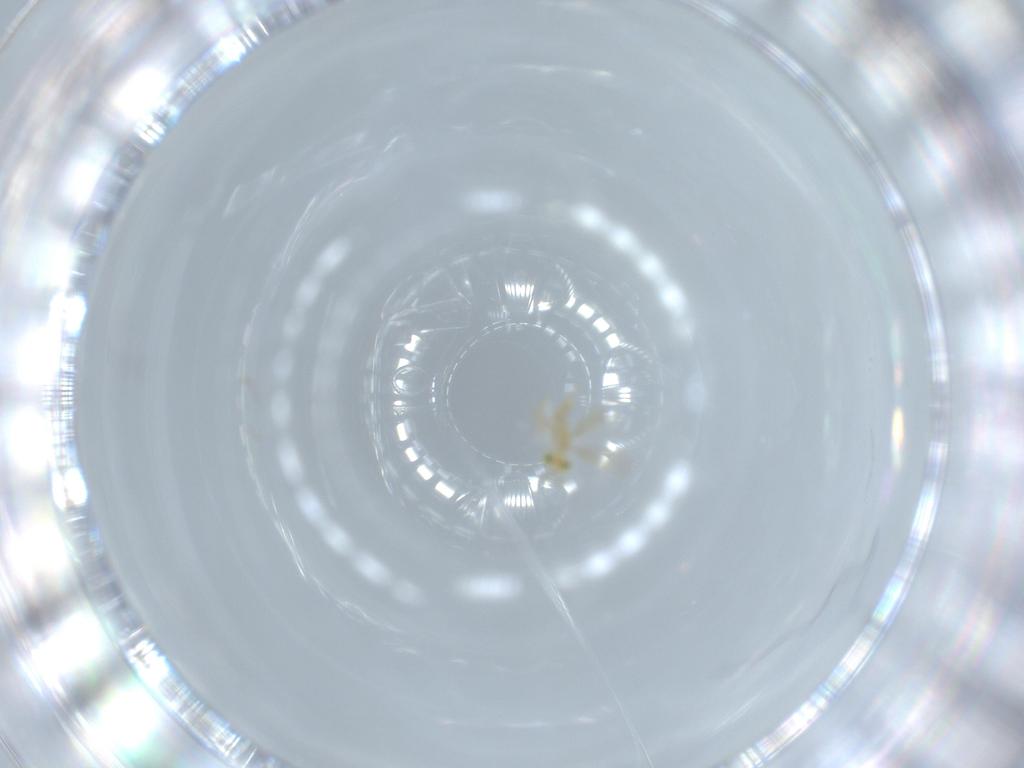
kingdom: Animalia
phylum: Arthropoda
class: Insecta
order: Hymenoptera
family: Aphelinidae
